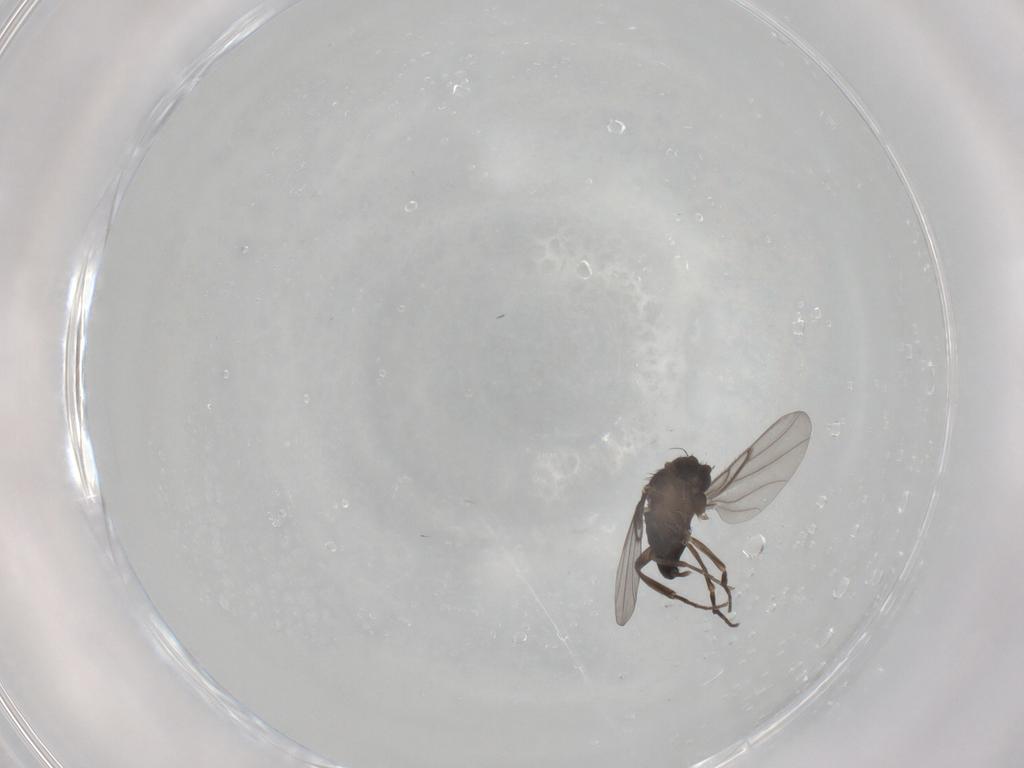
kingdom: Animalia
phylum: Arthropoda
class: Insecta
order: Diptera
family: Phoridae
